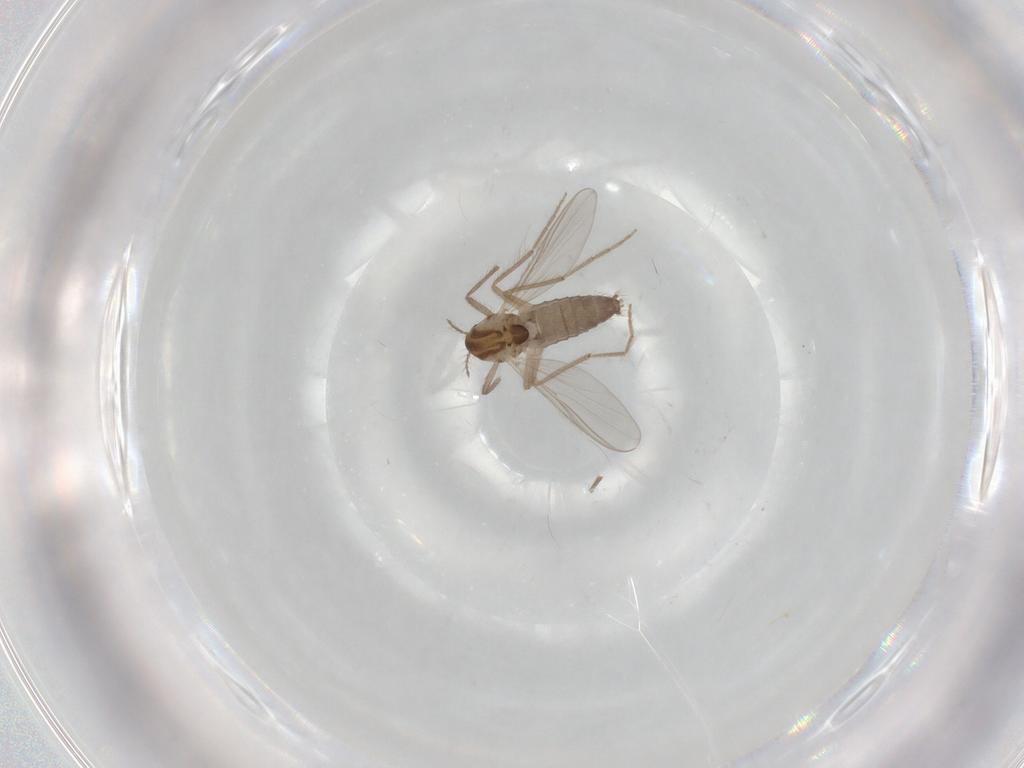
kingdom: Animalia
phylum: Arthropoda
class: Insecta
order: Diptera
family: Chironomidae
